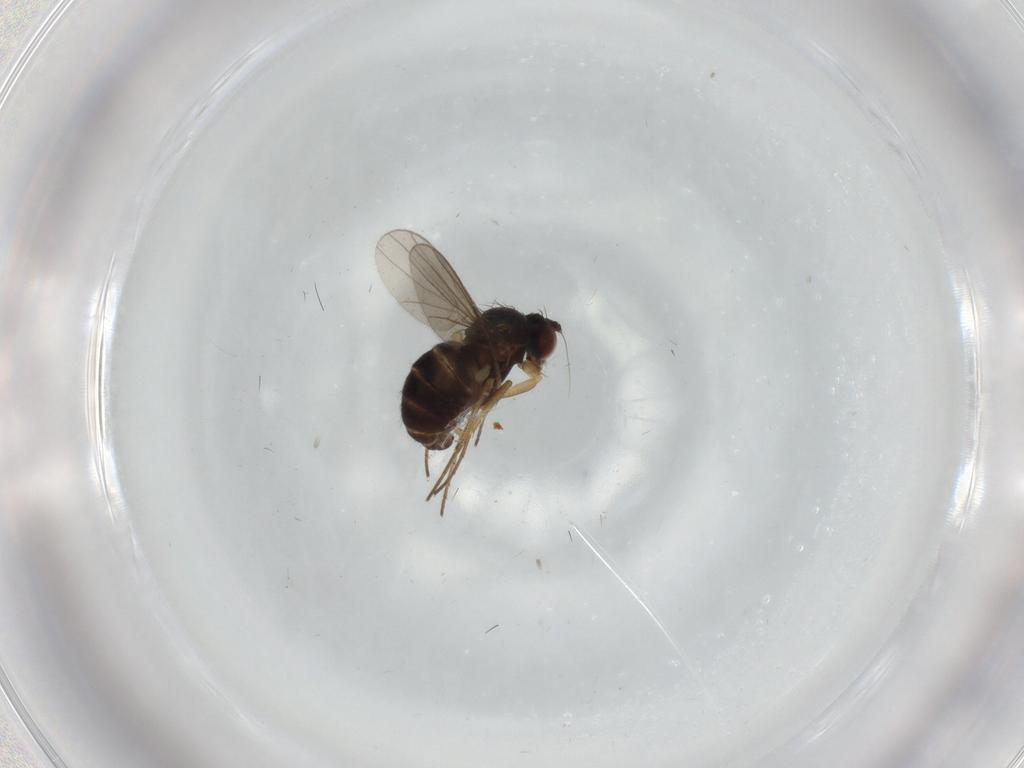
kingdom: Animalia
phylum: Arthropoda
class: Insecta
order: Diptera
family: Dolichopodidae
